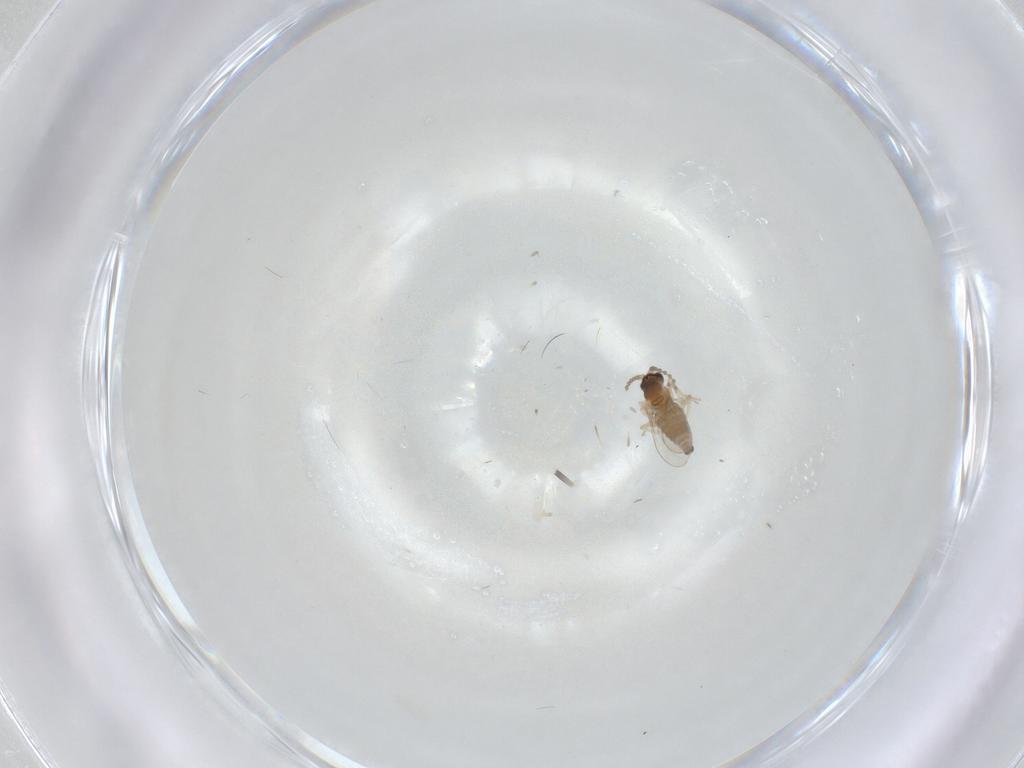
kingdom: Animalia
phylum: Arthropoda
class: Insecta
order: Diptera
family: Cecidomyiidae
